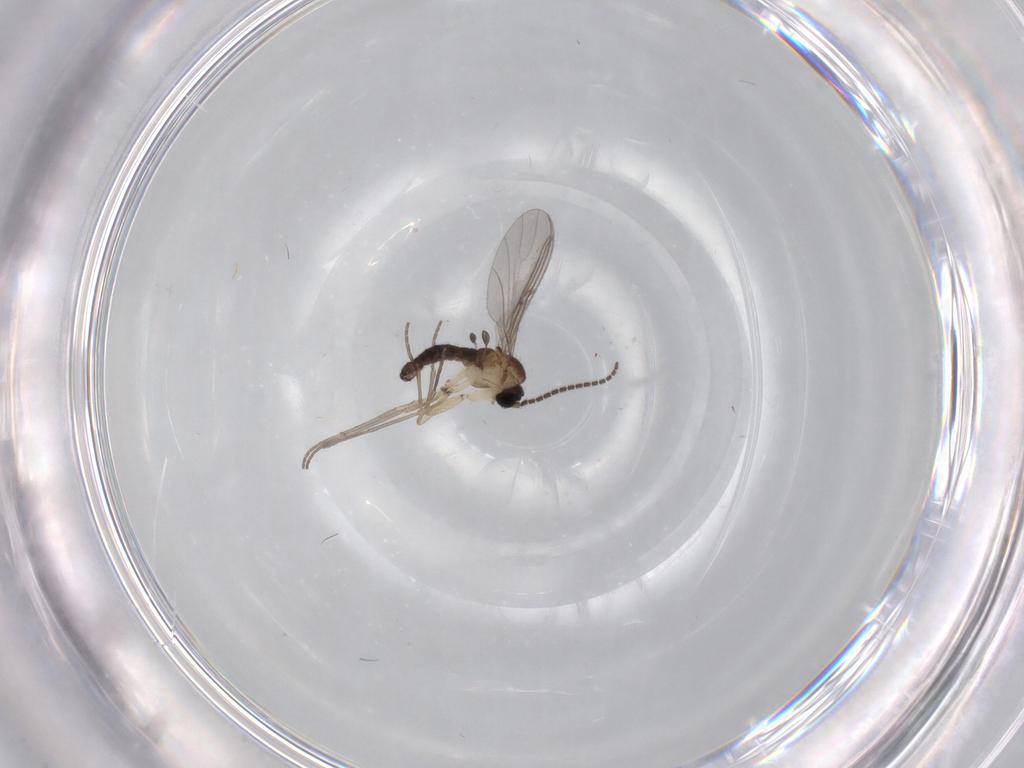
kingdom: Animalia
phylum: Arthropoda
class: Insecta
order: Diptera
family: Sciaridae
